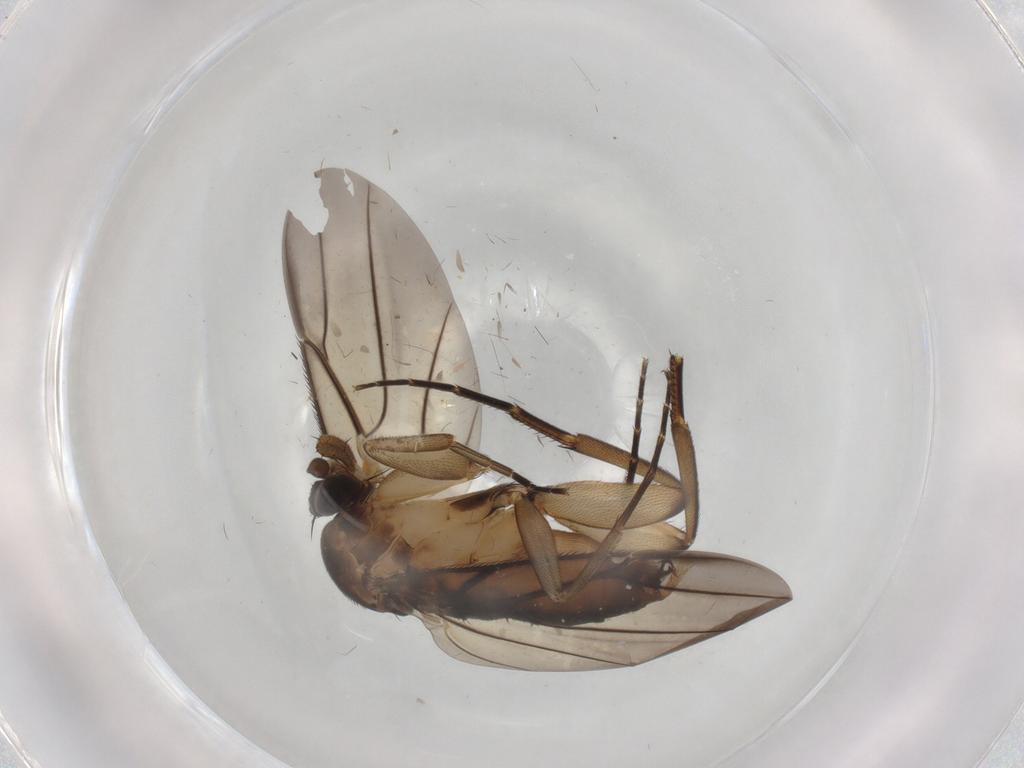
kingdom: Animalia
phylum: Arthropoda
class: Insecta
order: Diptera
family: Phoridae
